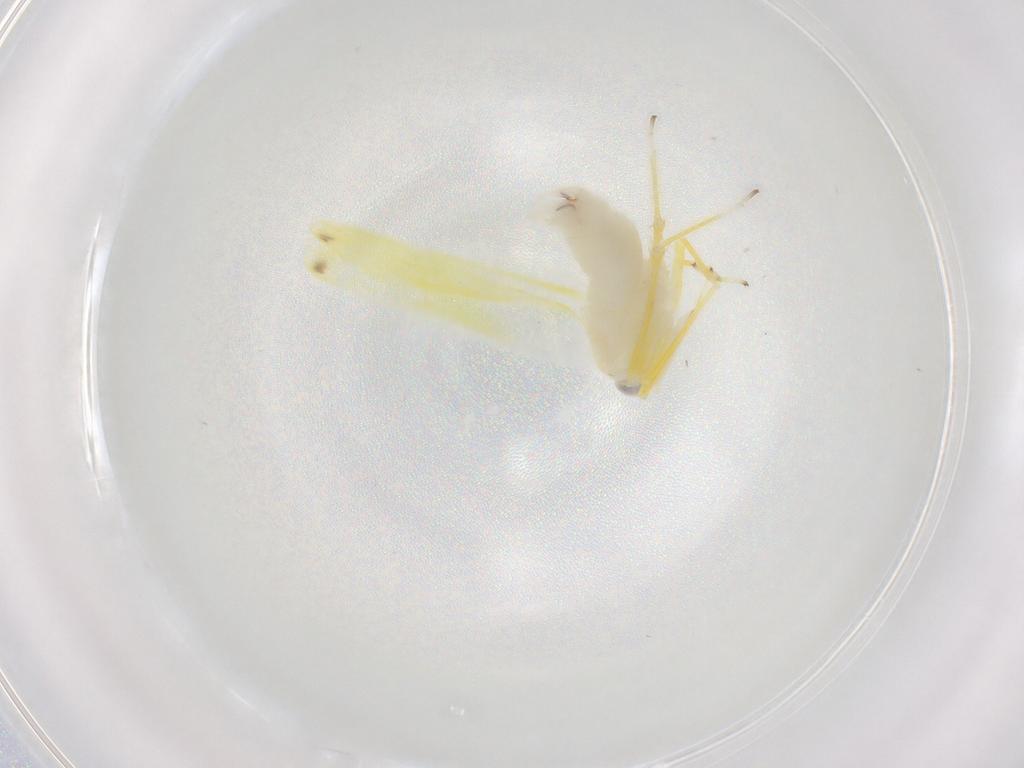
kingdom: Animalia
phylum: Arthropoda
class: Insecta
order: Hemiptera
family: Cicadellidae
